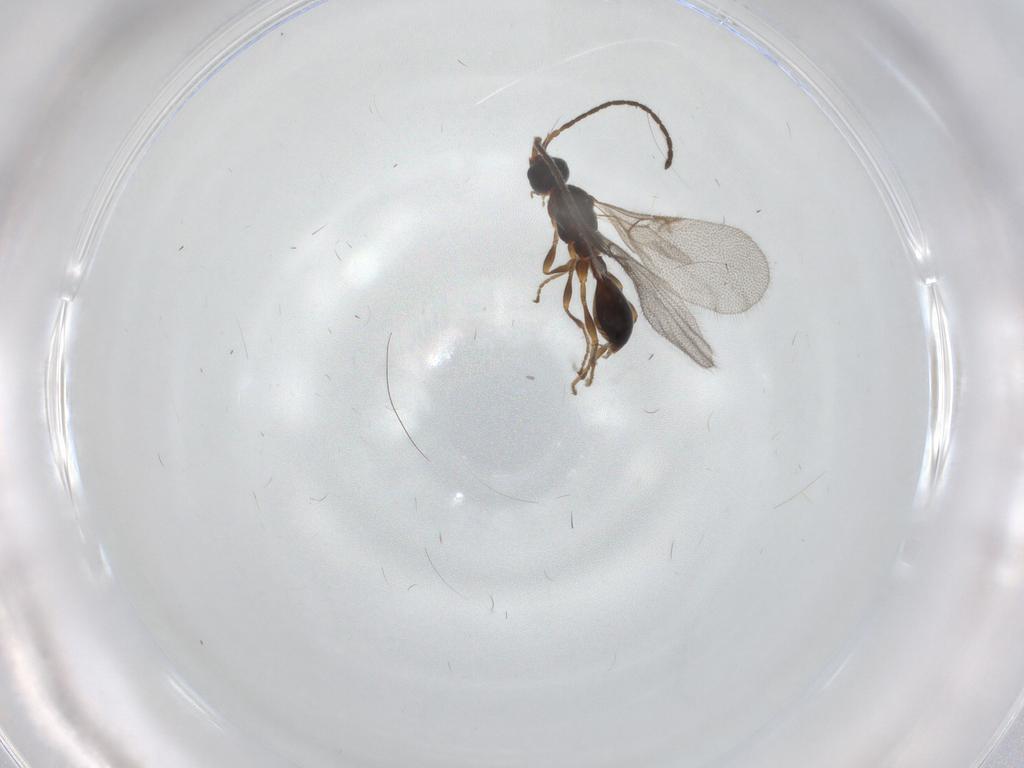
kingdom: Animalia
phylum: Arthropoda
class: Insecta
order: Hymenoptera
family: Diapriidae
